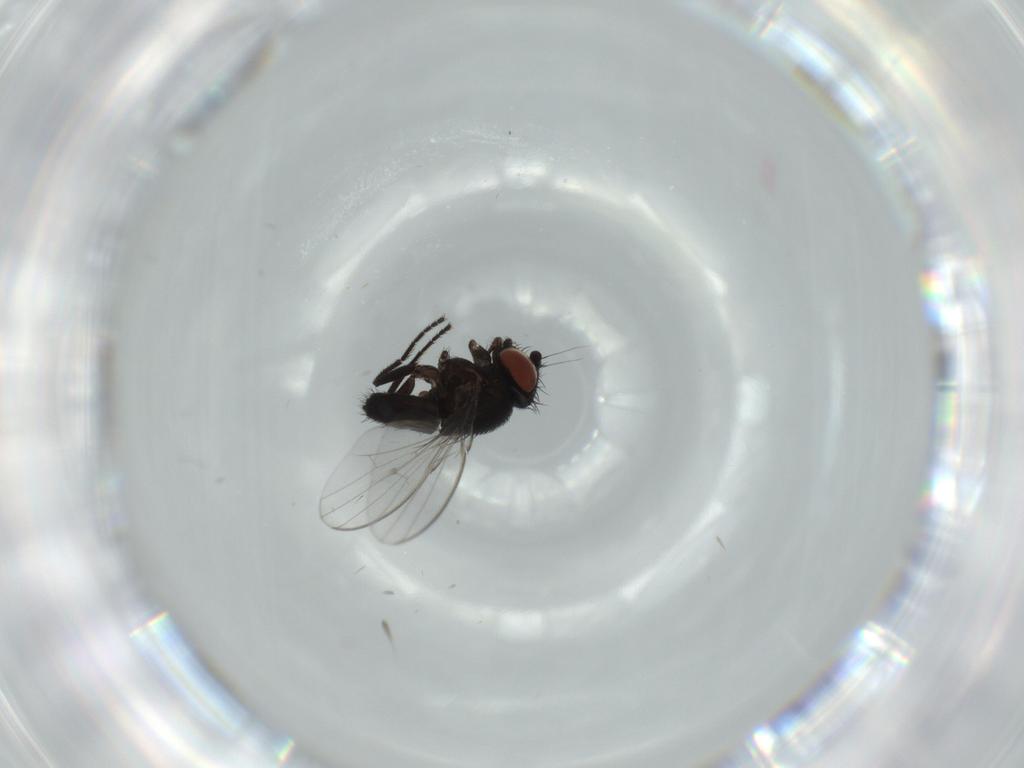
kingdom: Animalia
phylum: Arthropoda
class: Insecta
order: Diptera
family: Milichiidae
